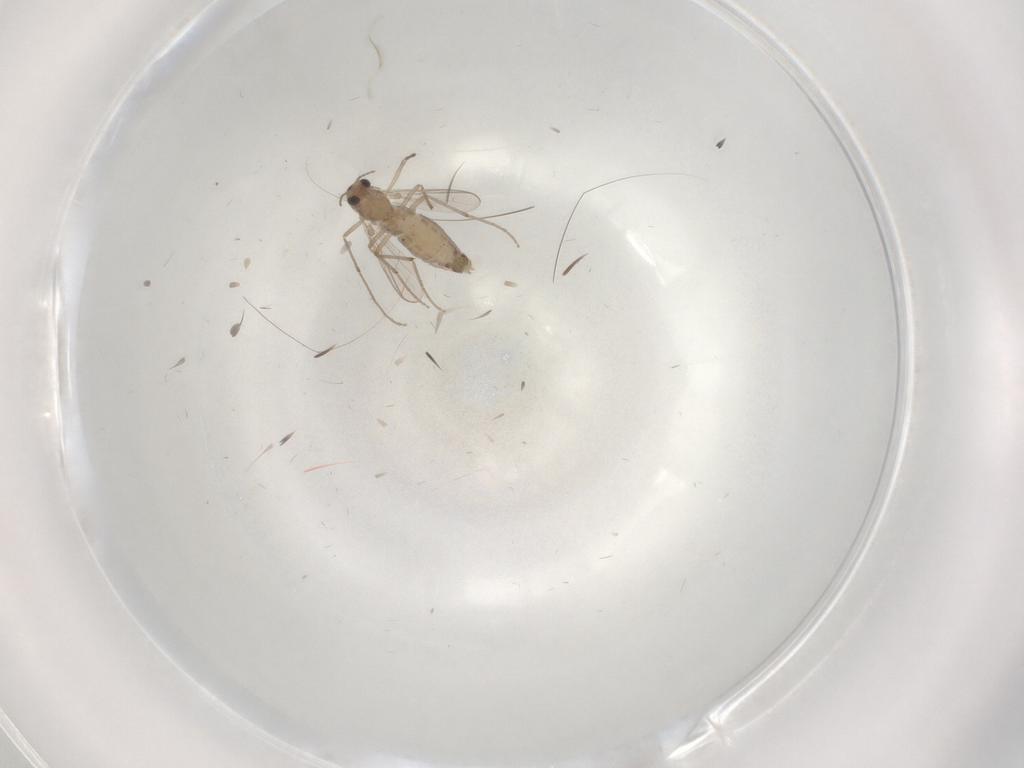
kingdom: Animalia
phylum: Arthropoda
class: Insecta
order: Diptera
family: Chironomidae
